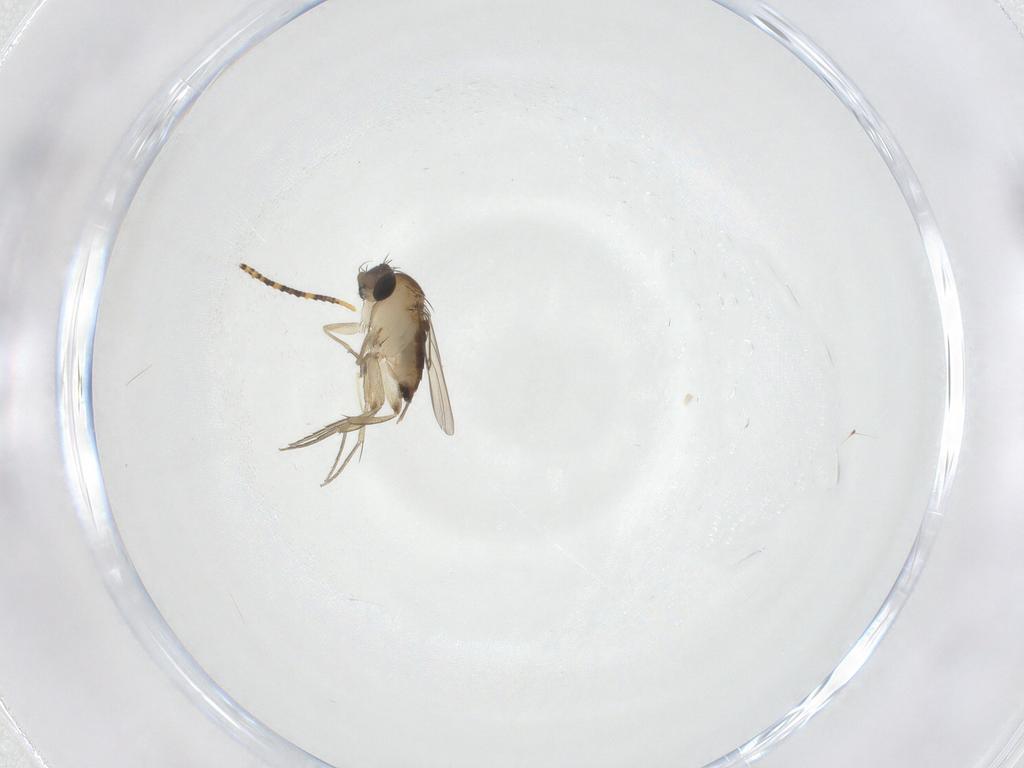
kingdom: Animalia
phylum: Arthropoda
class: Insecta
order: Diptera
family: Phoridae
